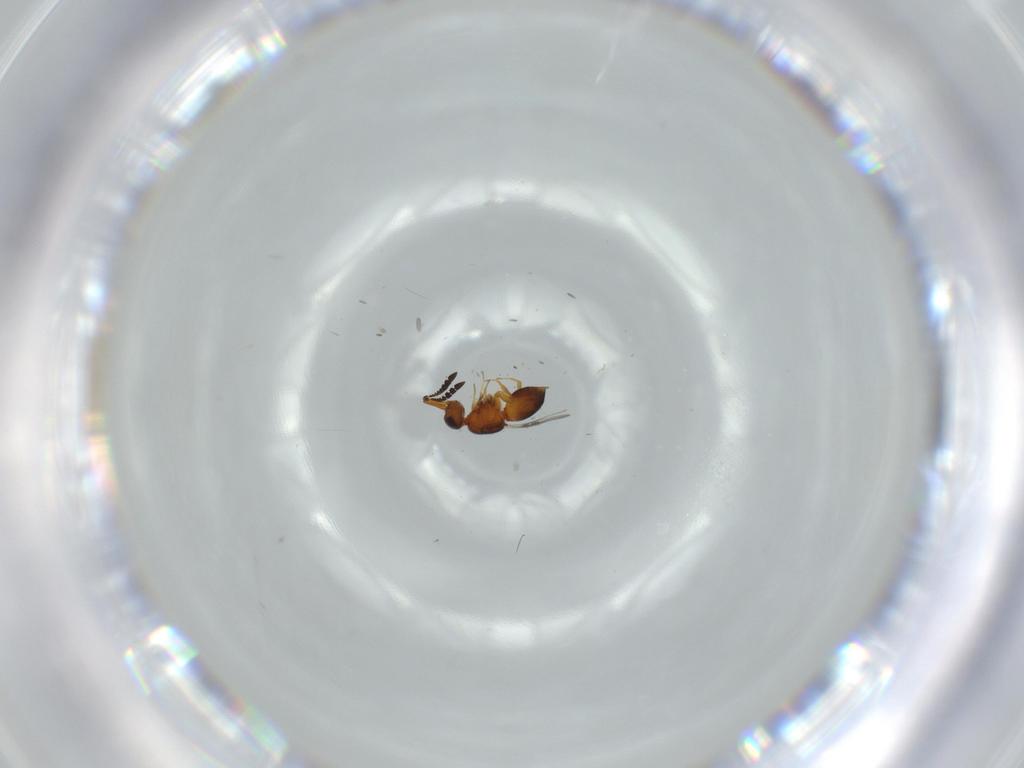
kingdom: Animalia
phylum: Arthropoda
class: Insecta
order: Hymenoptera
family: Ceraphronidae
